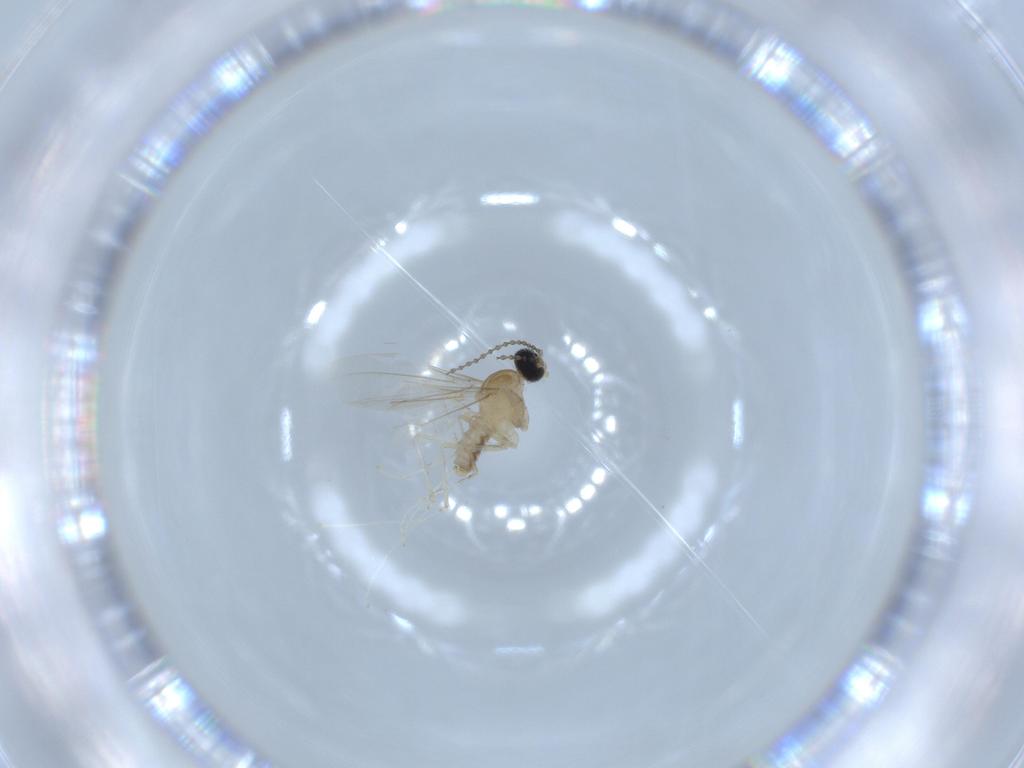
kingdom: Animalia
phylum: Arthropoda
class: Insecta
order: Diptera
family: Cecidomyiidae
